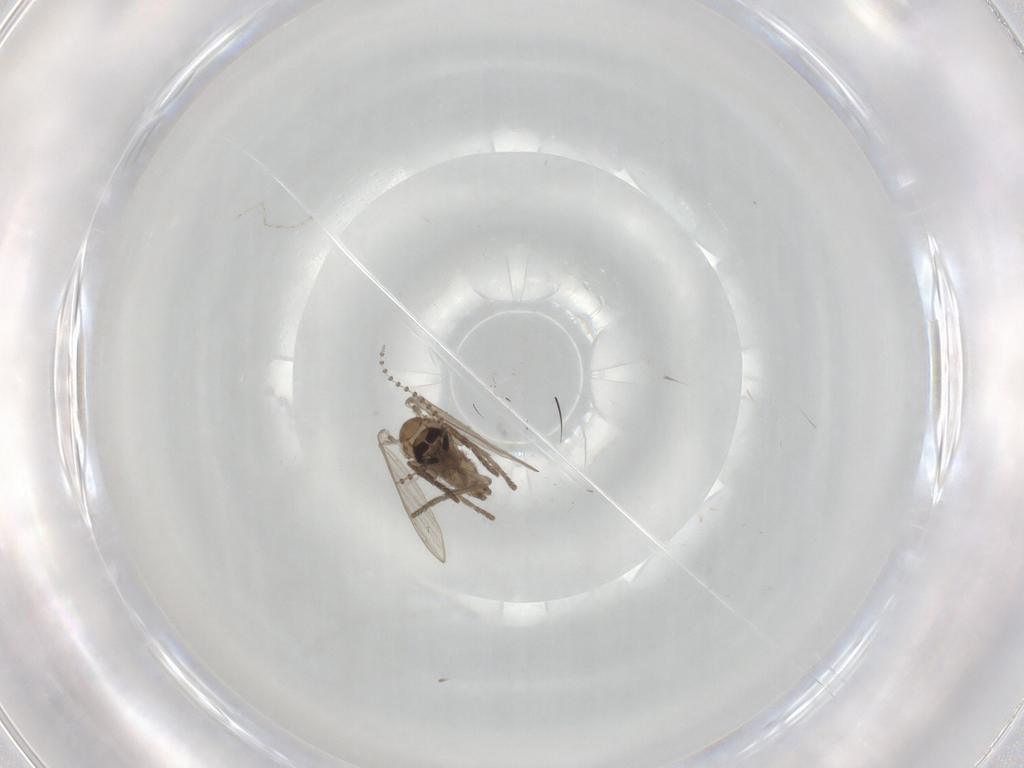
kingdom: Animalia
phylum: Arthropoda
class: Insecta
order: Diptera
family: Psychodidae
